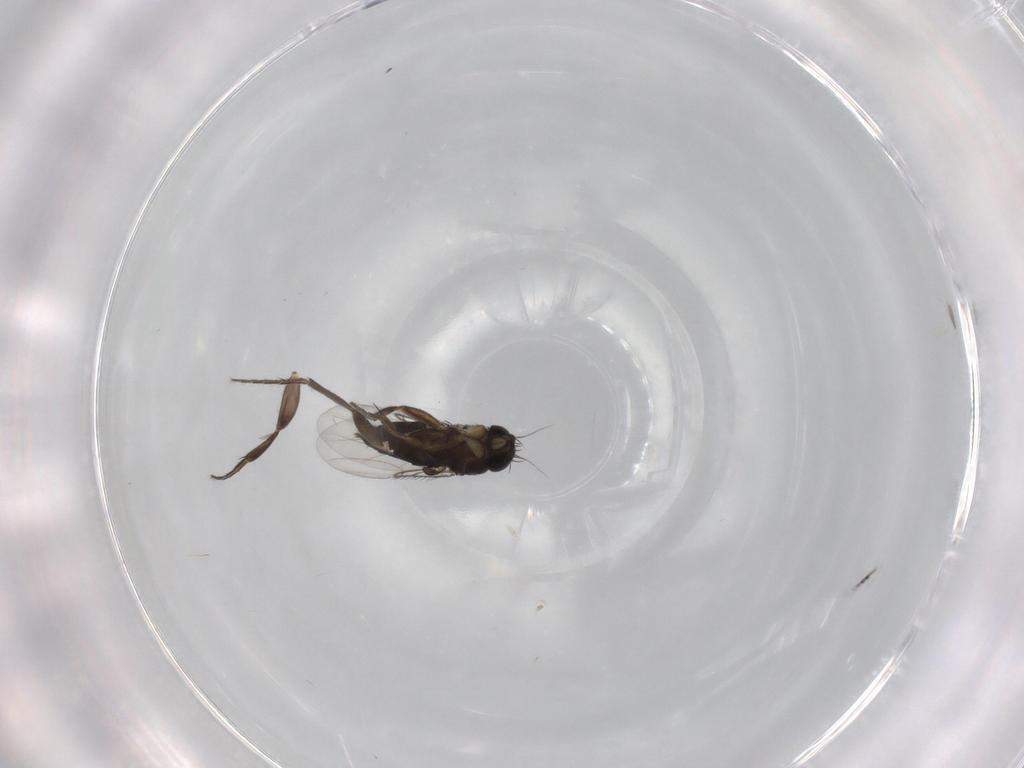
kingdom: Animalia
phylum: Arthropoda
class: Insecta
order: Diptera
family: Phoridae
